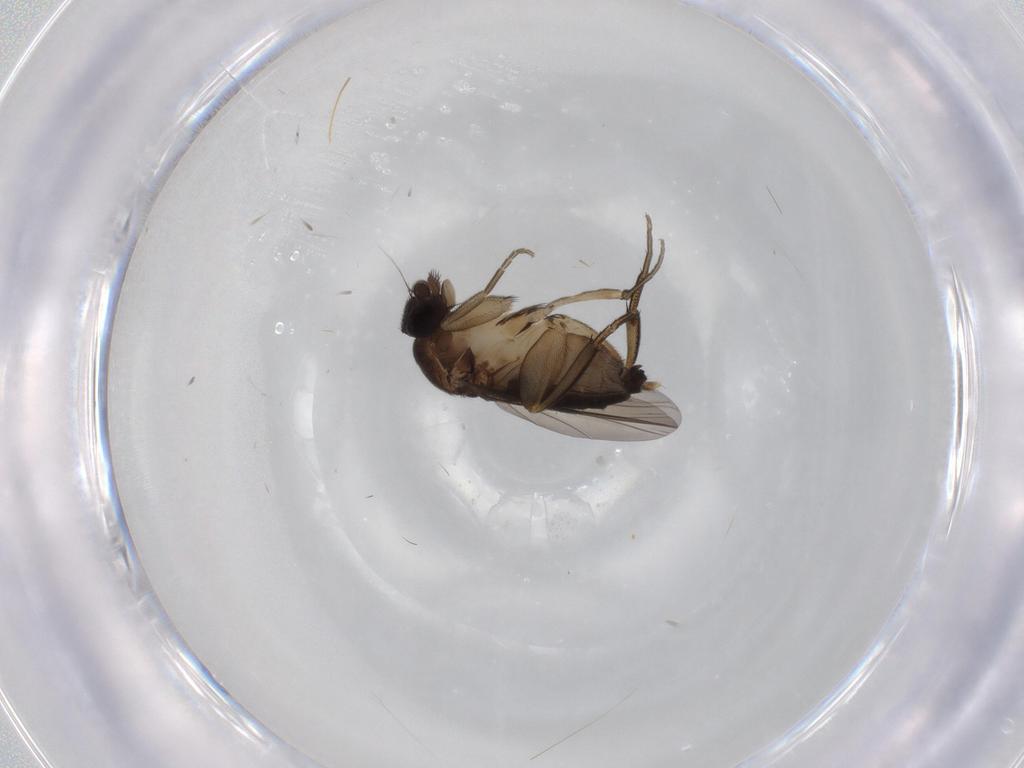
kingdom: Animalia
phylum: Arthropoda
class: Insecta
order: Diptera
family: Phoridae
